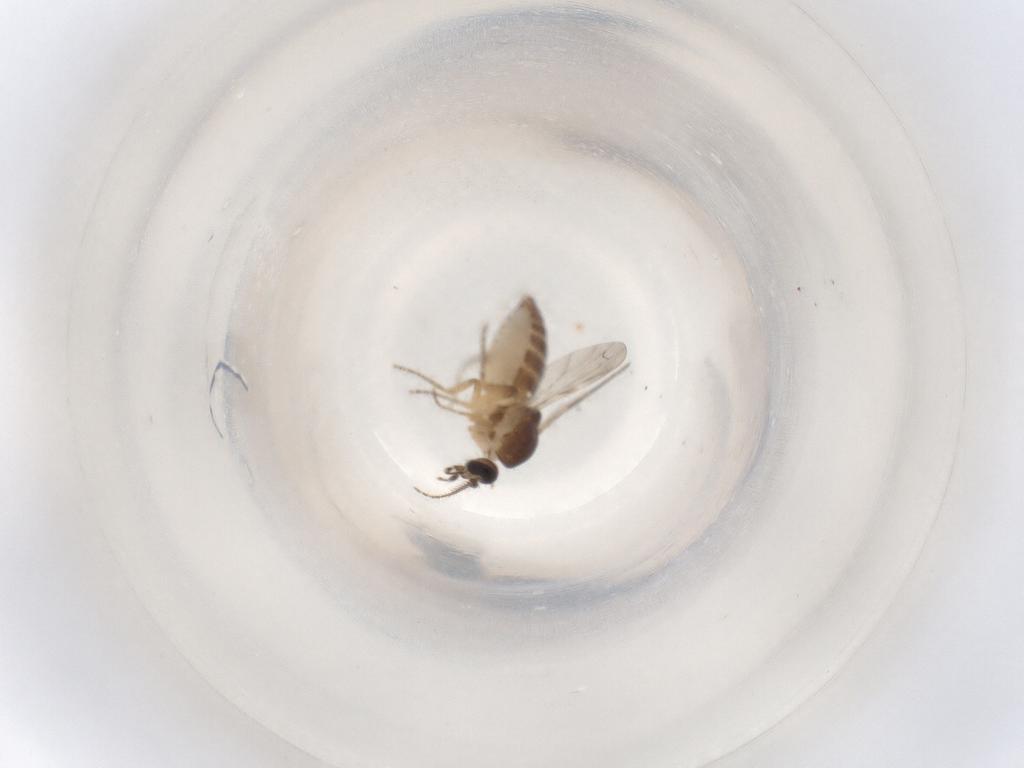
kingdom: Animalia
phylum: Arthropoda
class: Insecta
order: Diptera
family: Ceratopogonidae
